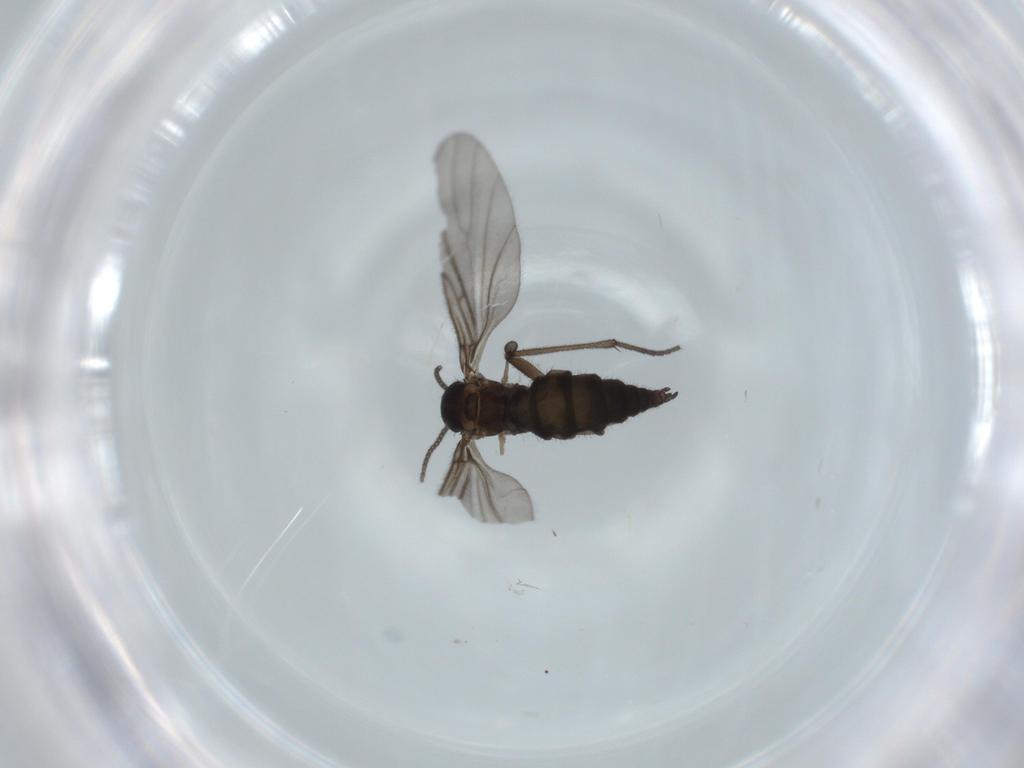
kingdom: Animalia
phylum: Arthropoda
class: Insecta
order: Diptera
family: Sciaridae
